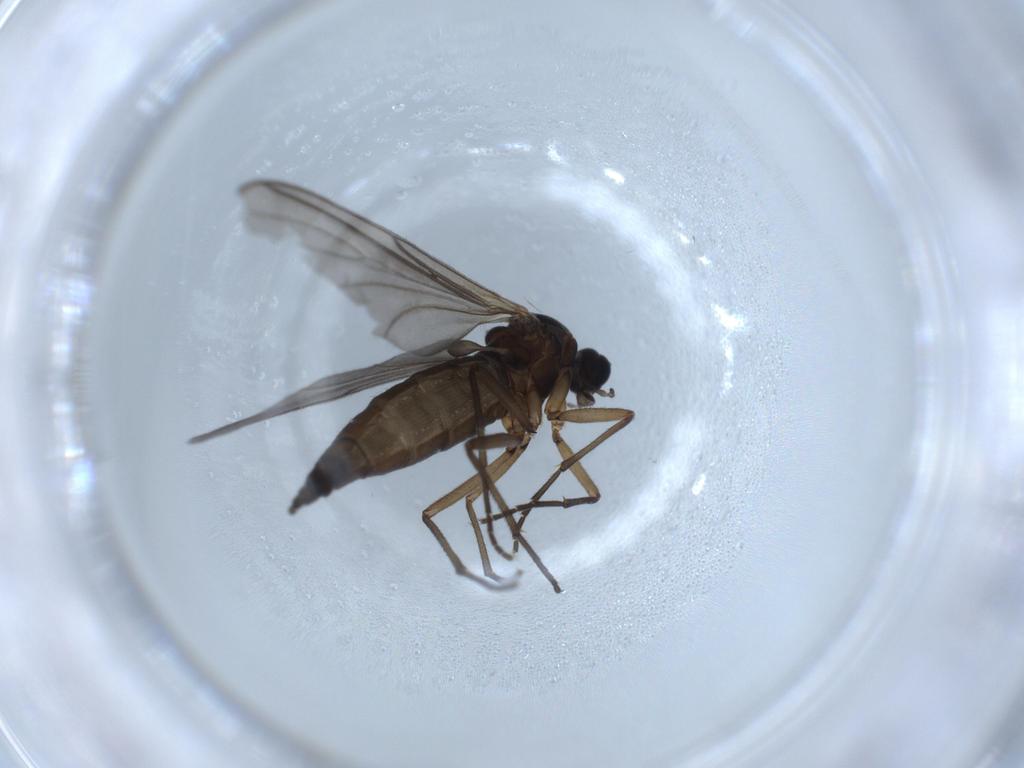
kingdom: Animalia
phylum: Arthropoda
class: Insecta
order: Diptera
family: Sciaridae
